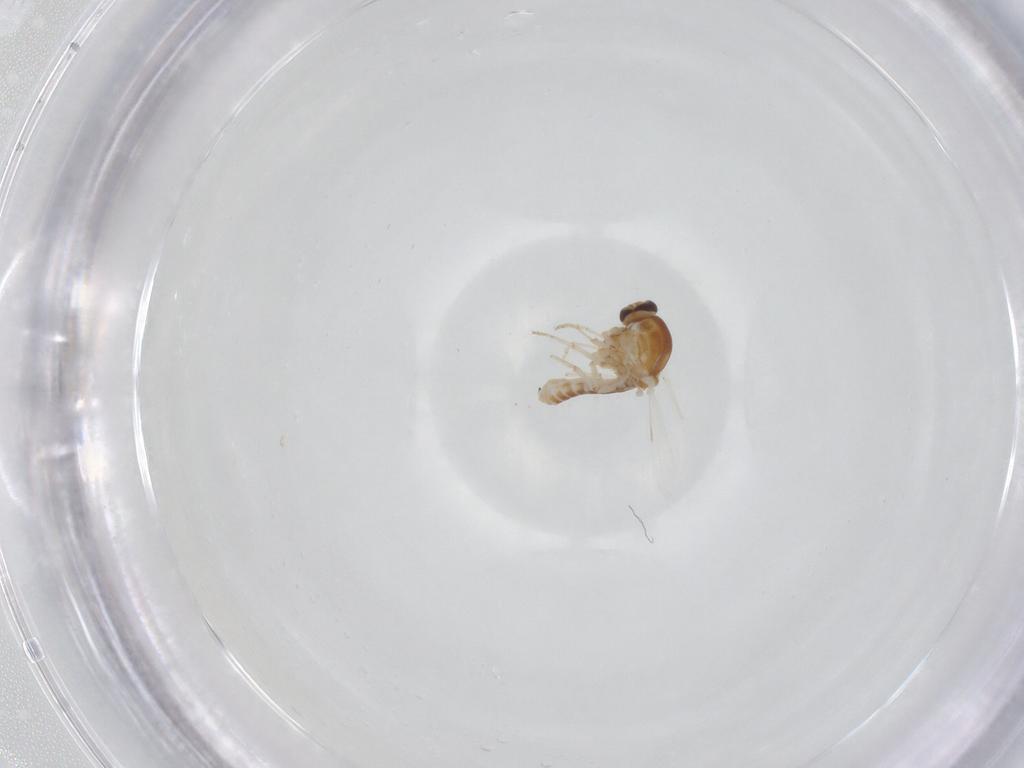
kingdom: Animalia
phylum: Arthropoda
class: Insecta
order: Diptera
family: Ceratopogonidae
